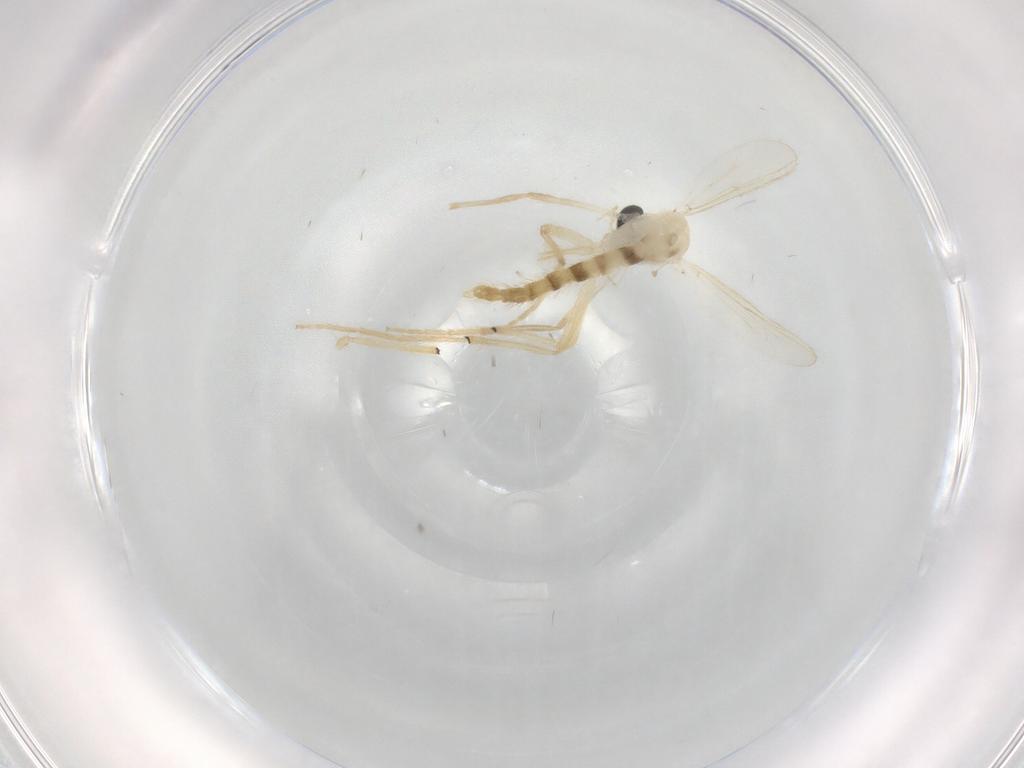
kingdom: Animalia
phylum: Arthropoda
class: Insecta
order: Diptera
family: Chironomidae
